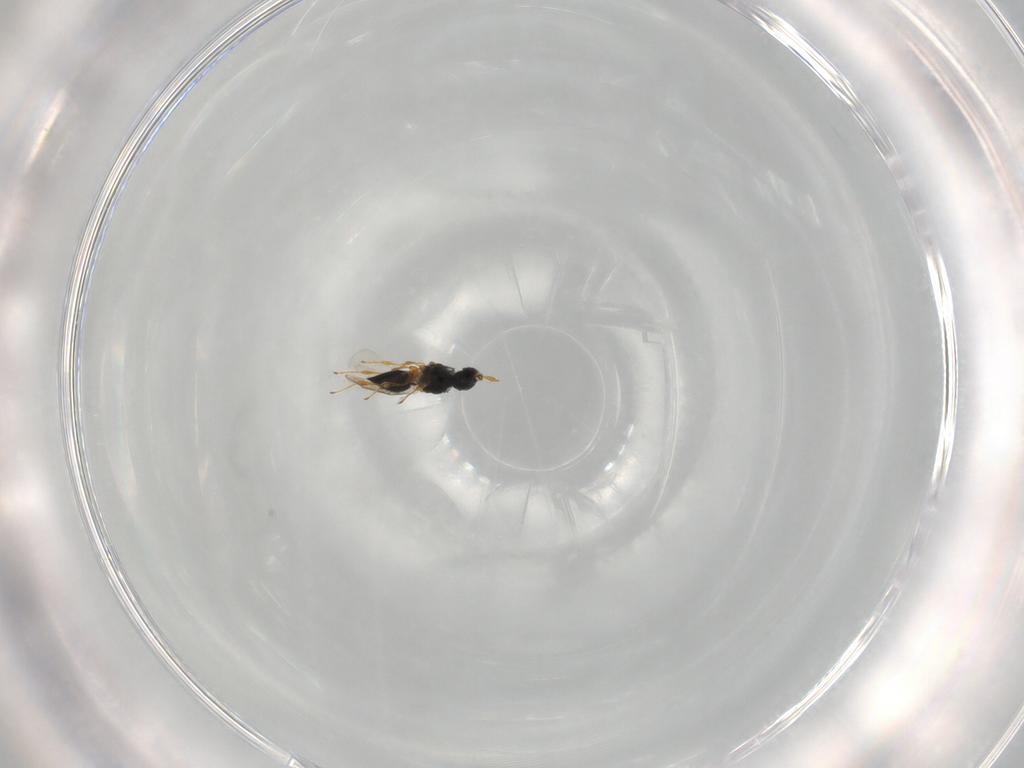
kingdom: Animalia
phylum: Arthropoda
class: Insecta
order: Hymenoptera
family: Platygastridae
